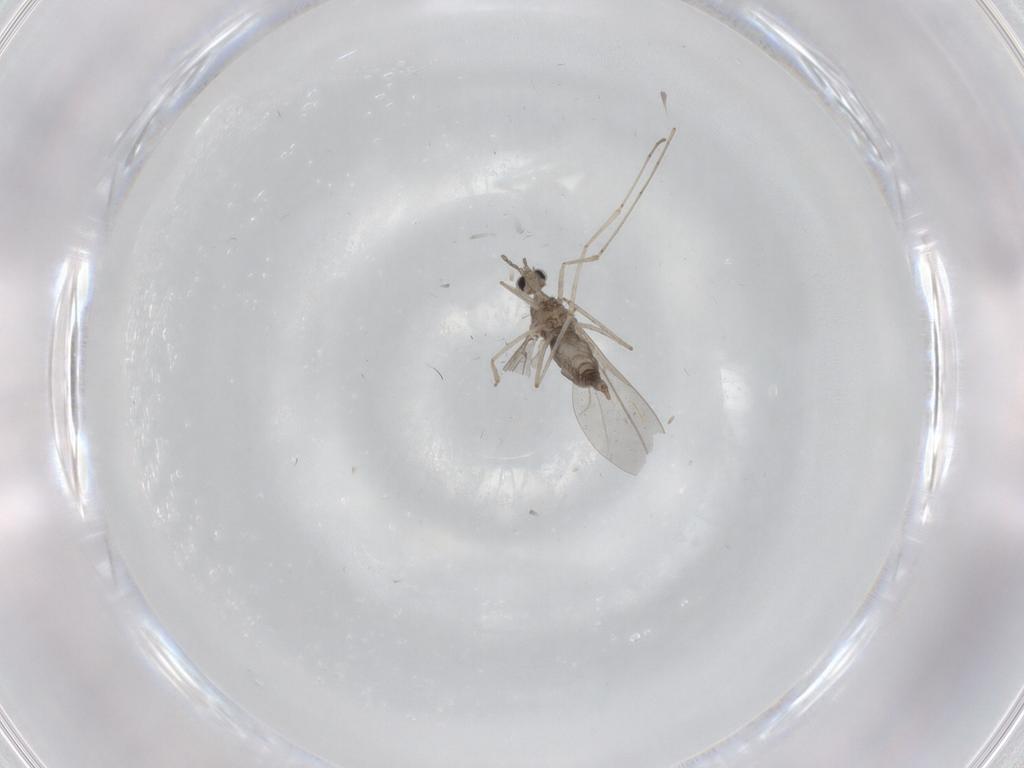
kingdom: Animalia
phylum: Arthropoda
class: Insecta
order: Diptera
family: Cecidomyiidae
